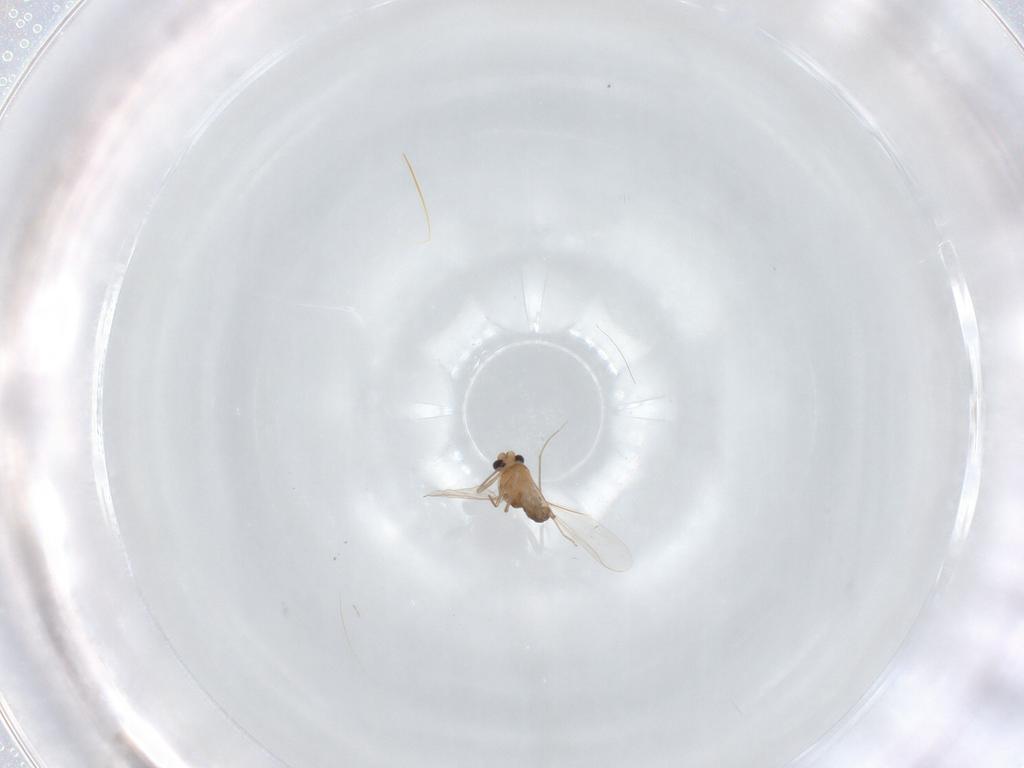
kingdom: Animalia
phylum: Arthropoda
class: Insecta
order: Diptera
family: Chironomidae
